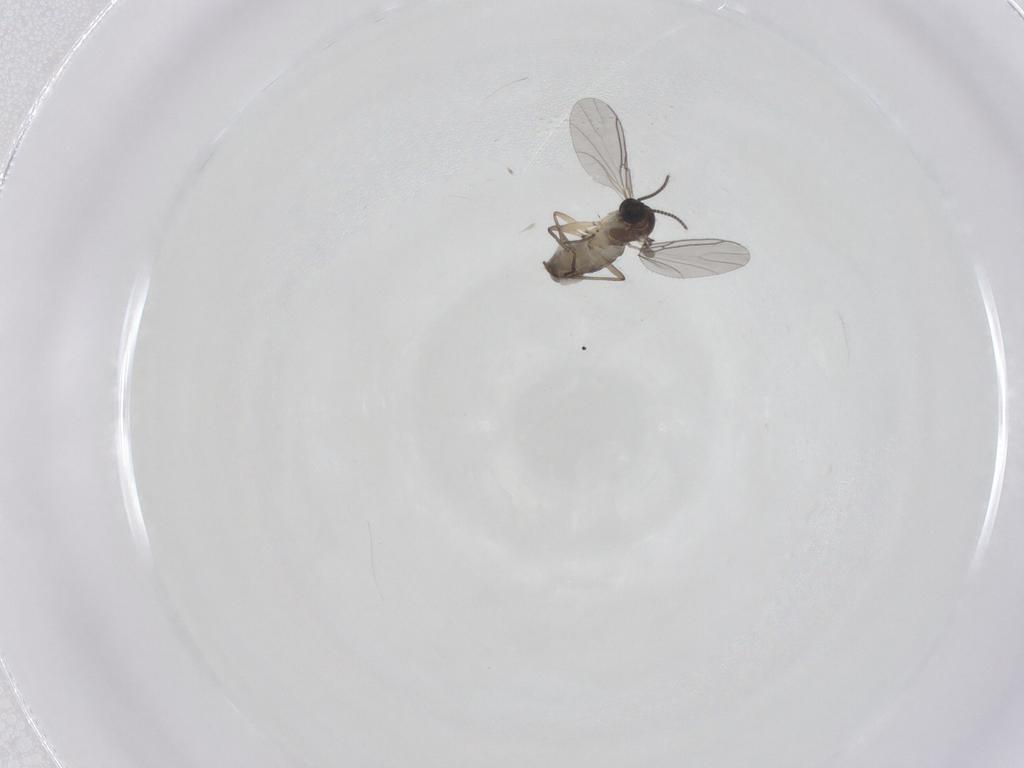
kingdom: Animalia
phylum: Arthropoda
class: Insecta
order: Diptera
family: Sciaridae
